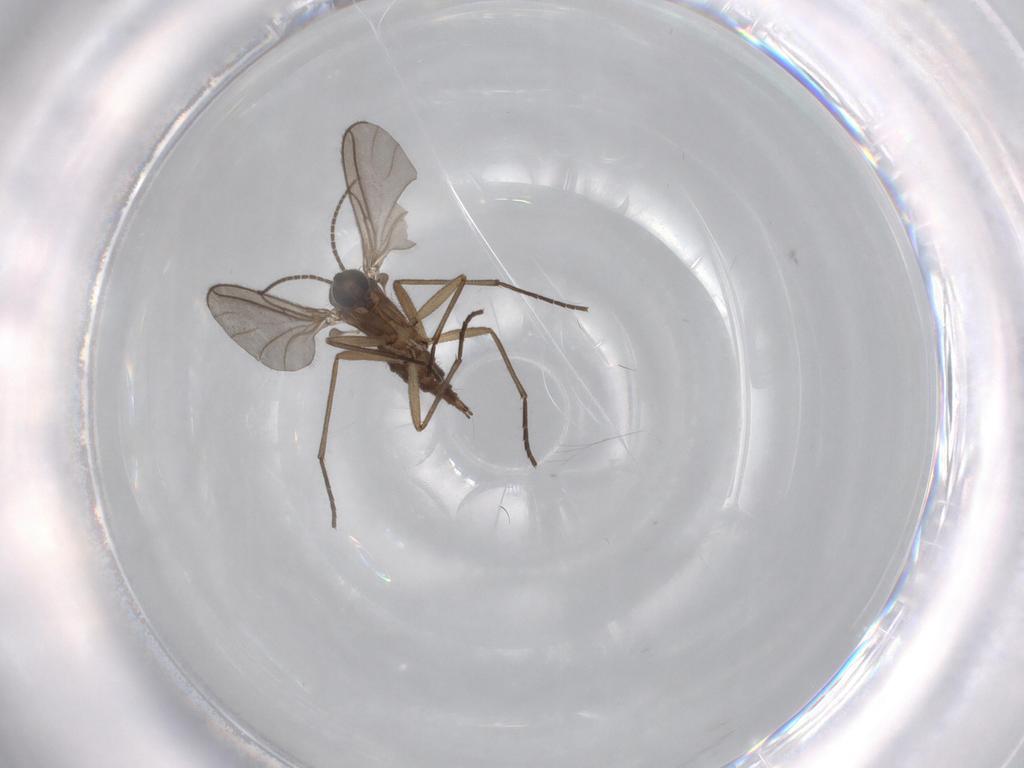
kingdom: Animalia
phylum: Arthropoda
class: Insecta
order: Diptera
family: Sciaridae
